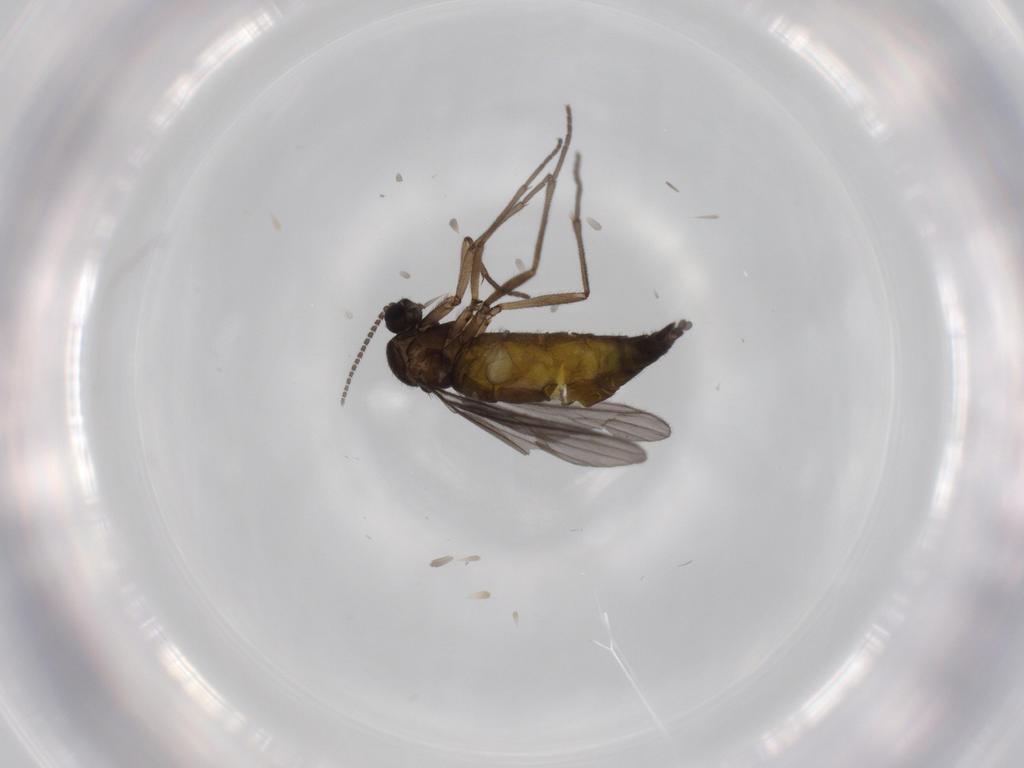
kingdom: Animalia
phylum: Arthropoda
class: Insecta
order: Diptera
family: Sciaridae
